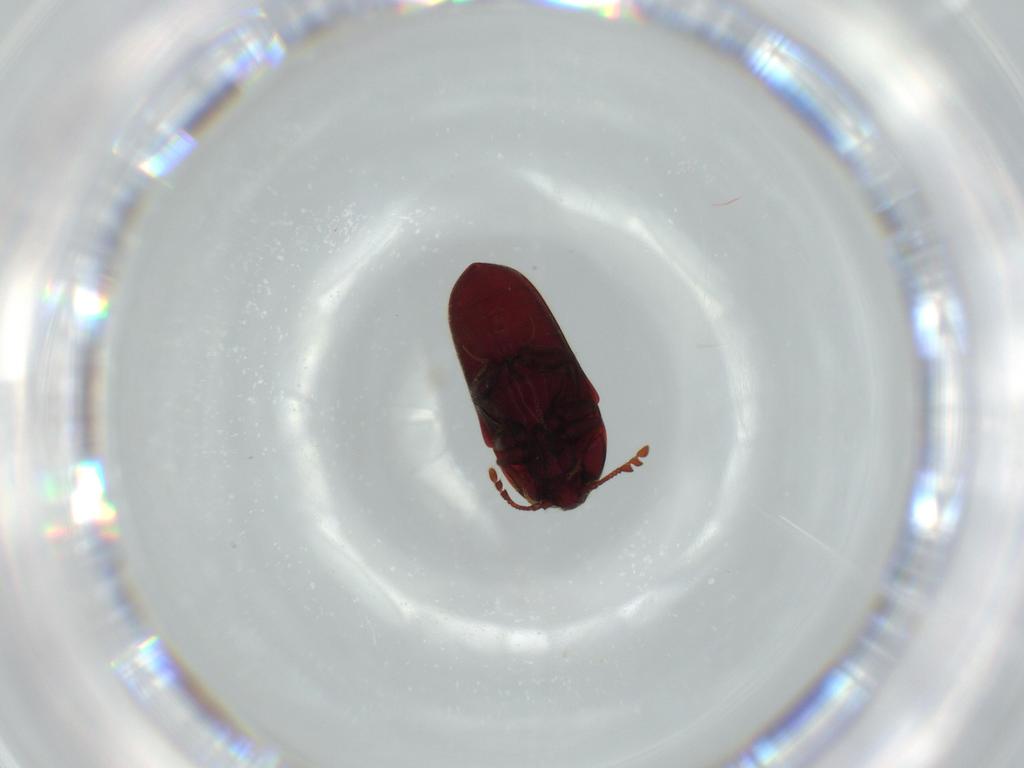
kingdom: Animalia
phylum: Arthropoda
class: Insecta
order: Coleoptera
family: Throscidae
